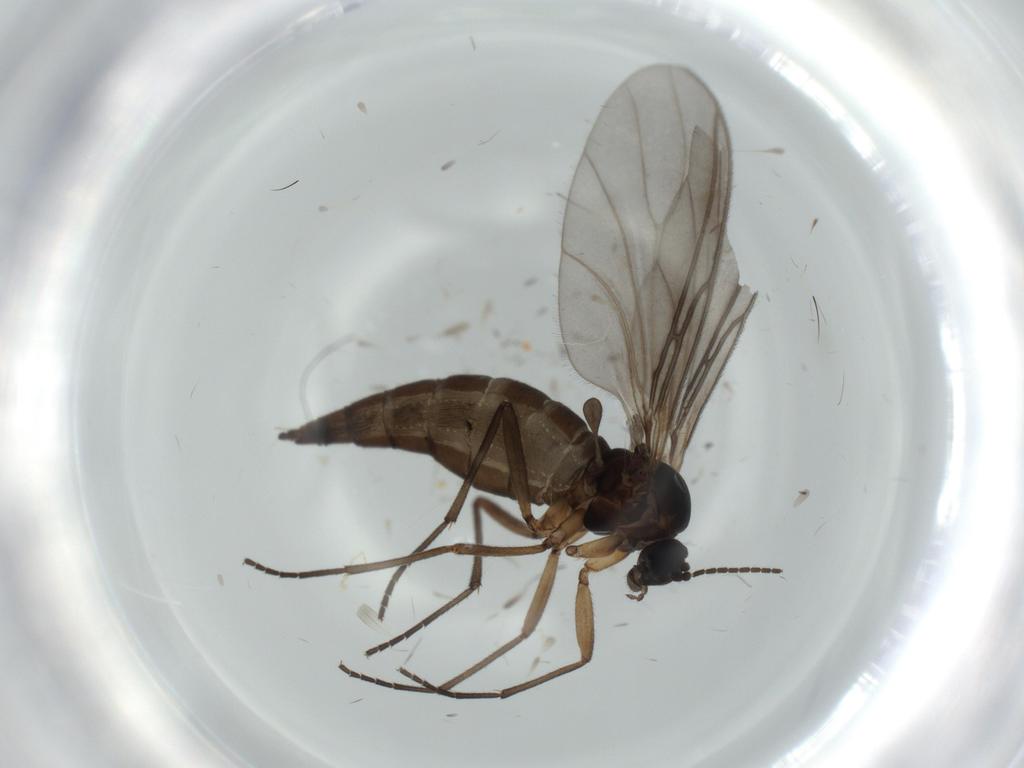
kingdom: Animalia
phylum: Arthropoda
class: Insecta
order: Diptera
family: Sciaridae
